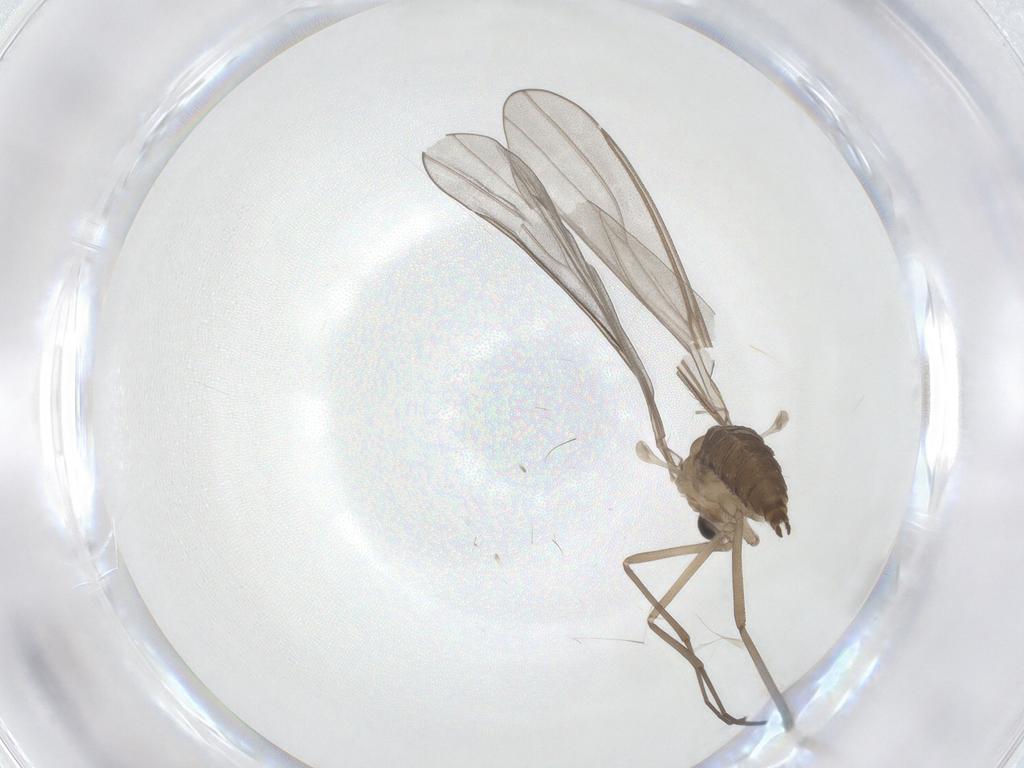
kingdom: Animalia
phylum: Arthropoda
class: Insecta
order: Diptera
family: Cecidomyiidae
